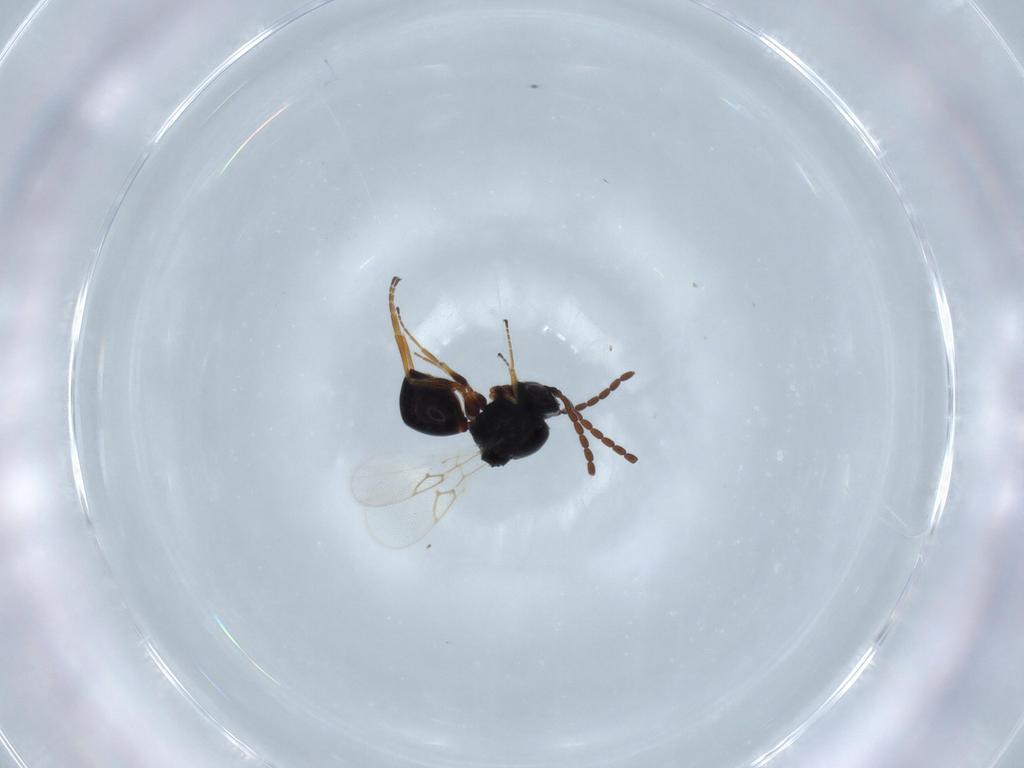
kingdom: Animalia
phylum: Arthropoda
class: Insecta
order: Hymenoptera
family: Figitidae
